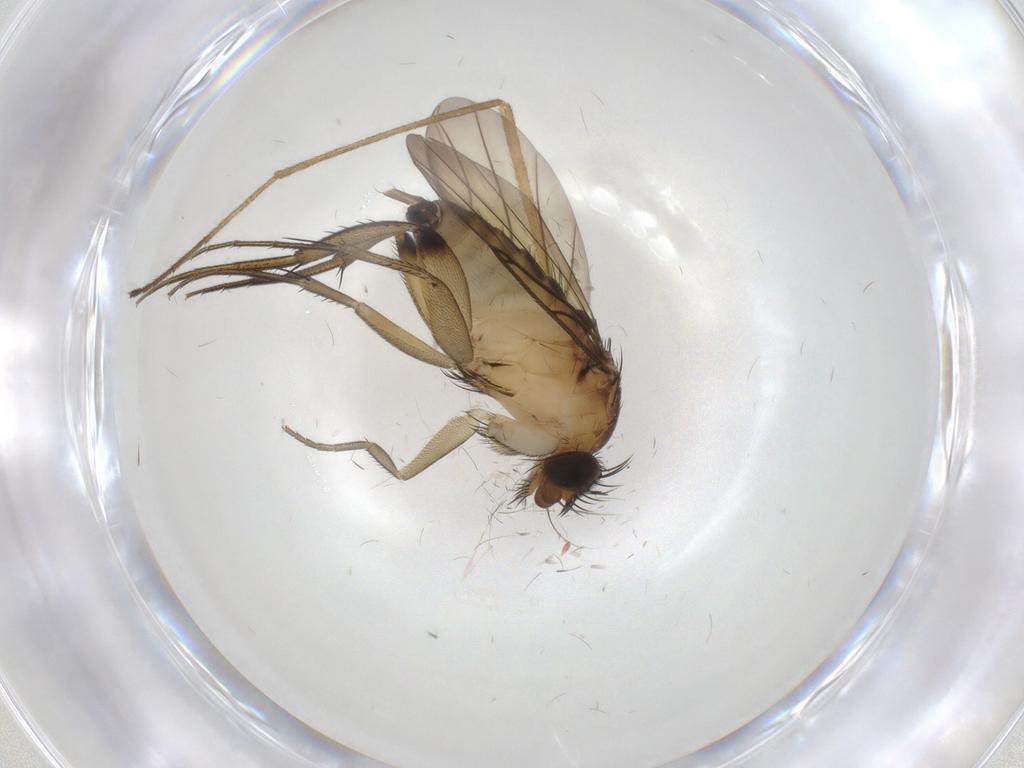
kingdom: Animalia
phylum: Arthropoda
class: Insecta
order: Diptera
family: Phoridae
